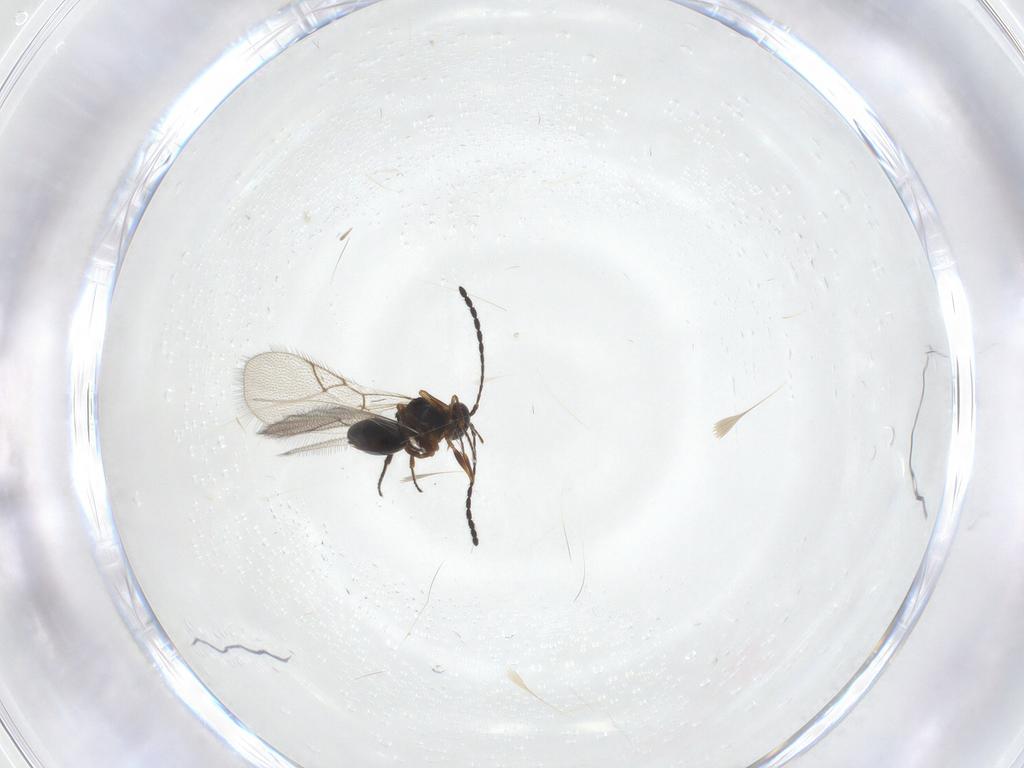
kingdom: Animalia
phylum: Arthropoda
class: Insecta
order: Hymenoptera
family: Figitidae
